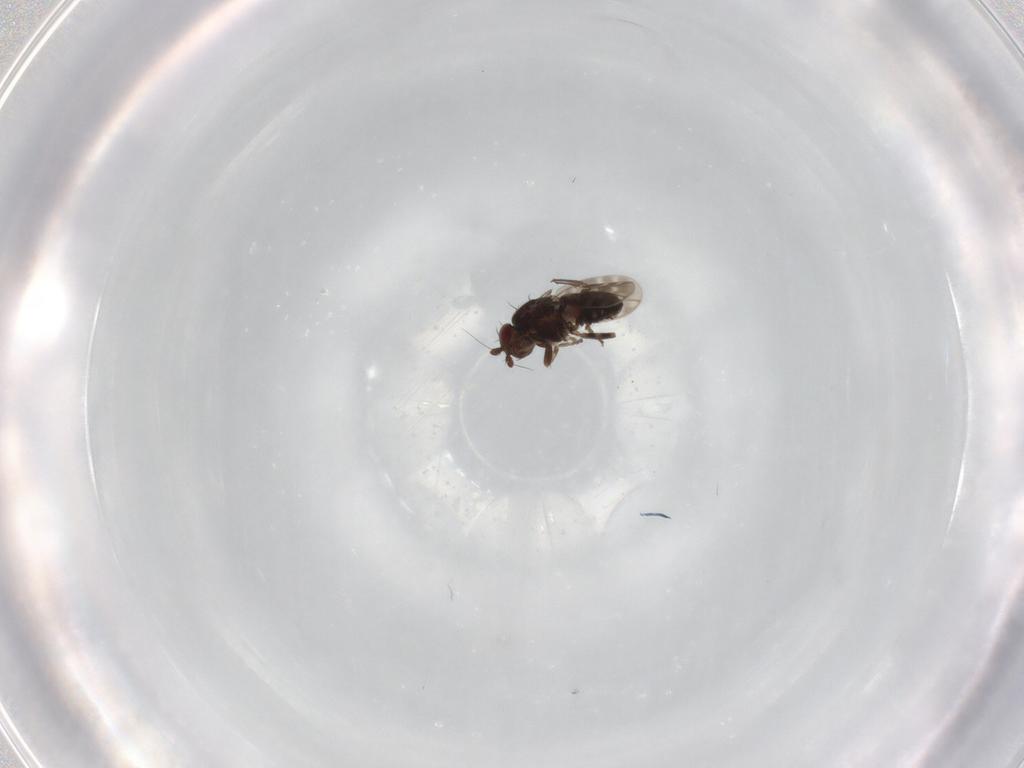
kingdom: Animalia
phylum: Arthropoda
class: Insecta
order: Diptera
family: Sphaeroceridae
